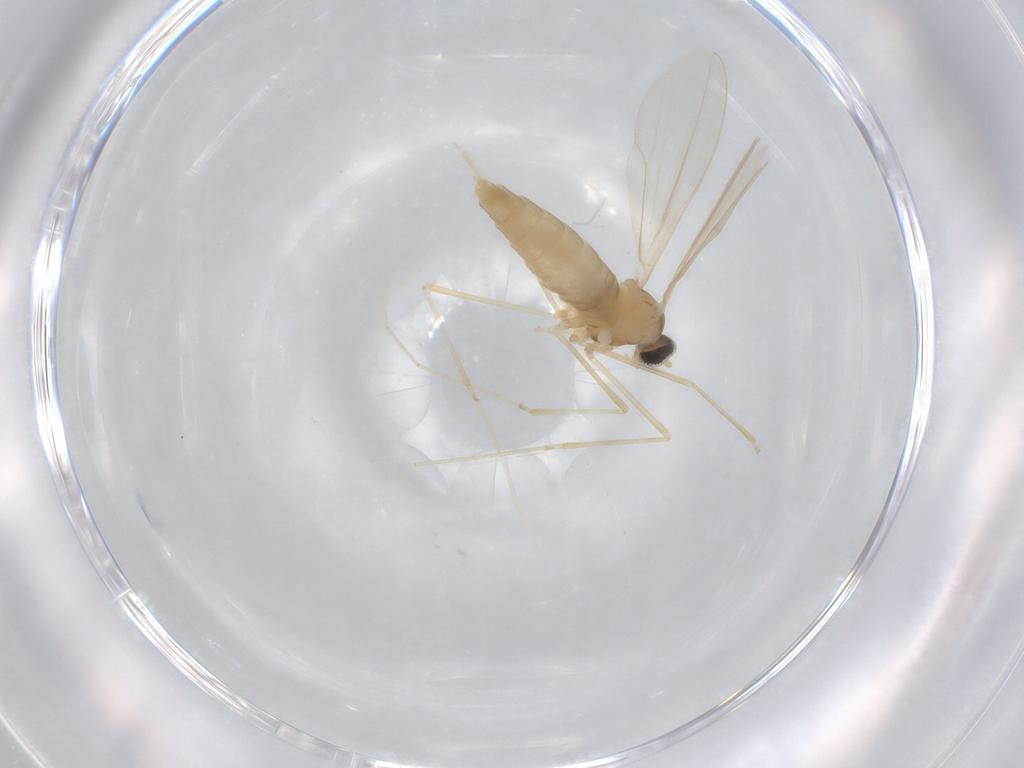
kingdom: Animalia
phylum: Arthropoda
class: Insecta
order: Diptera
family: Cecidomyiidae
